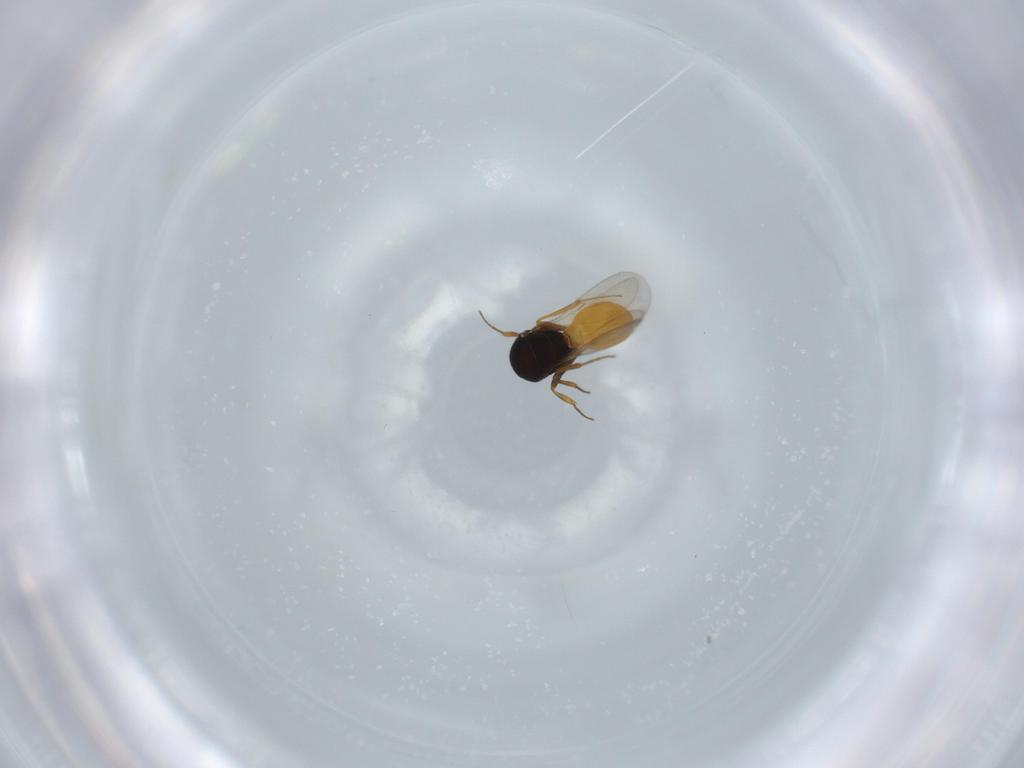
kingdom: Animalia
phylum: Arthropoda
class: Insecta
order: Hymenoptera
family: Scelionidae
